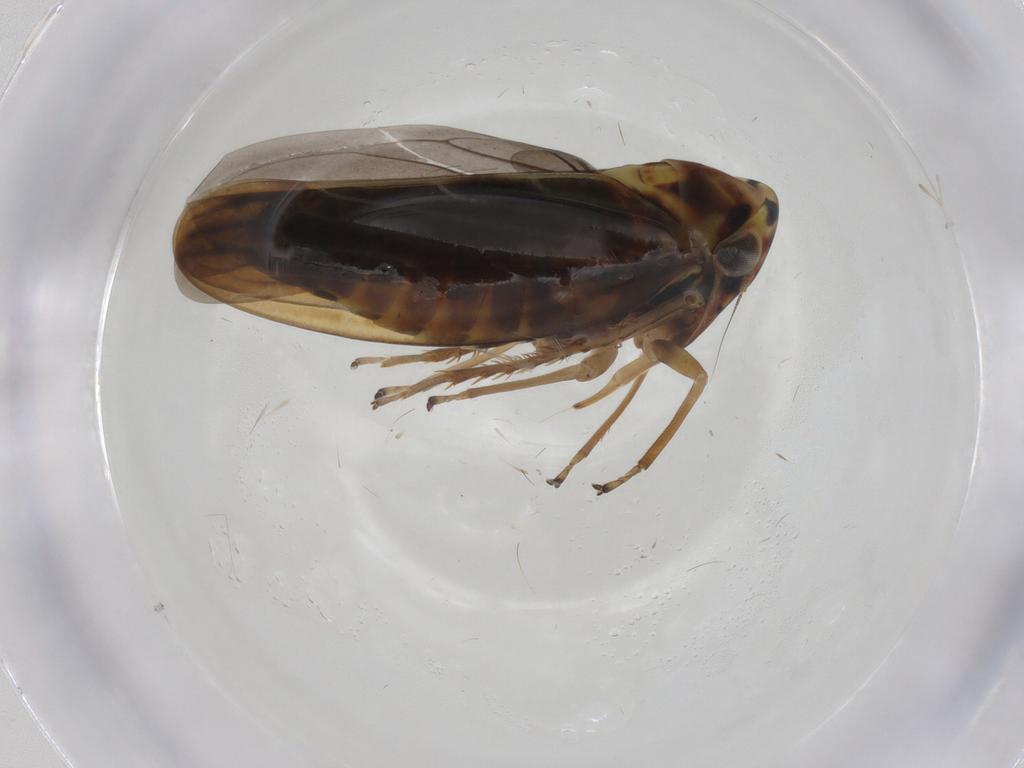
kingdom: Animalia
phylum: Arthropoda
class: Insecta
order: Hemiptera
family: Cicadellidae
